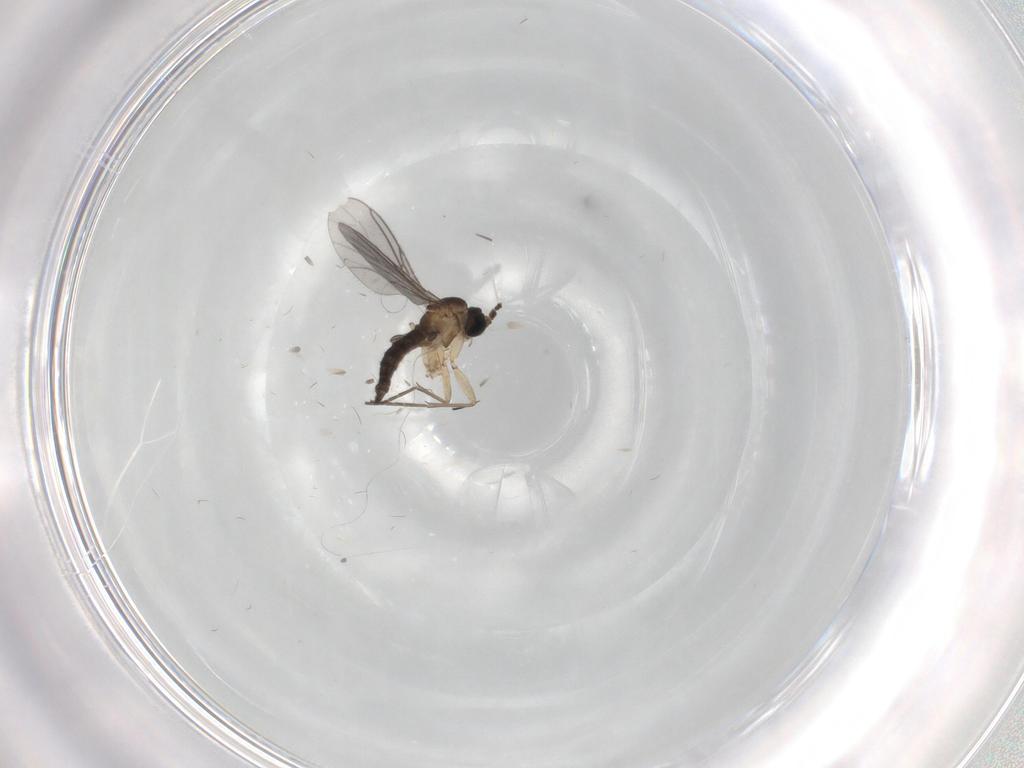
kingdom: Animalia
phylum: Arthropoda
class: Insecta
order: Diptera
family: Sciaridae
